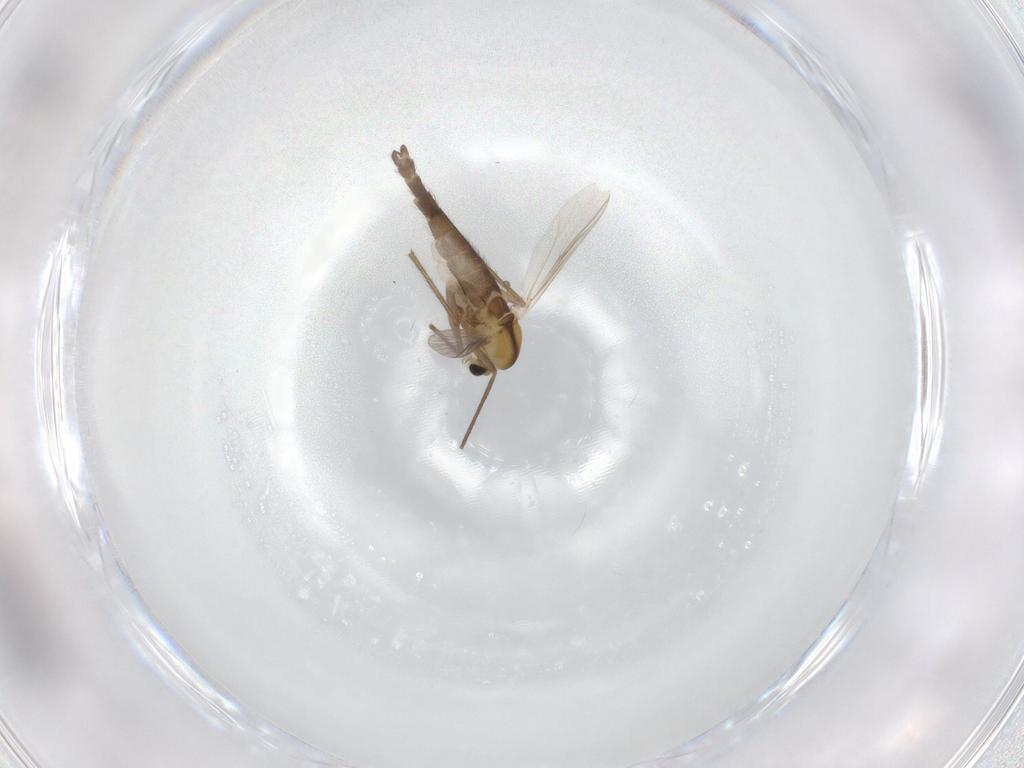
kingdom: Animalia
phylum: Arthropoda
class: Insecta
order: Diptera
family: Chironomidae
